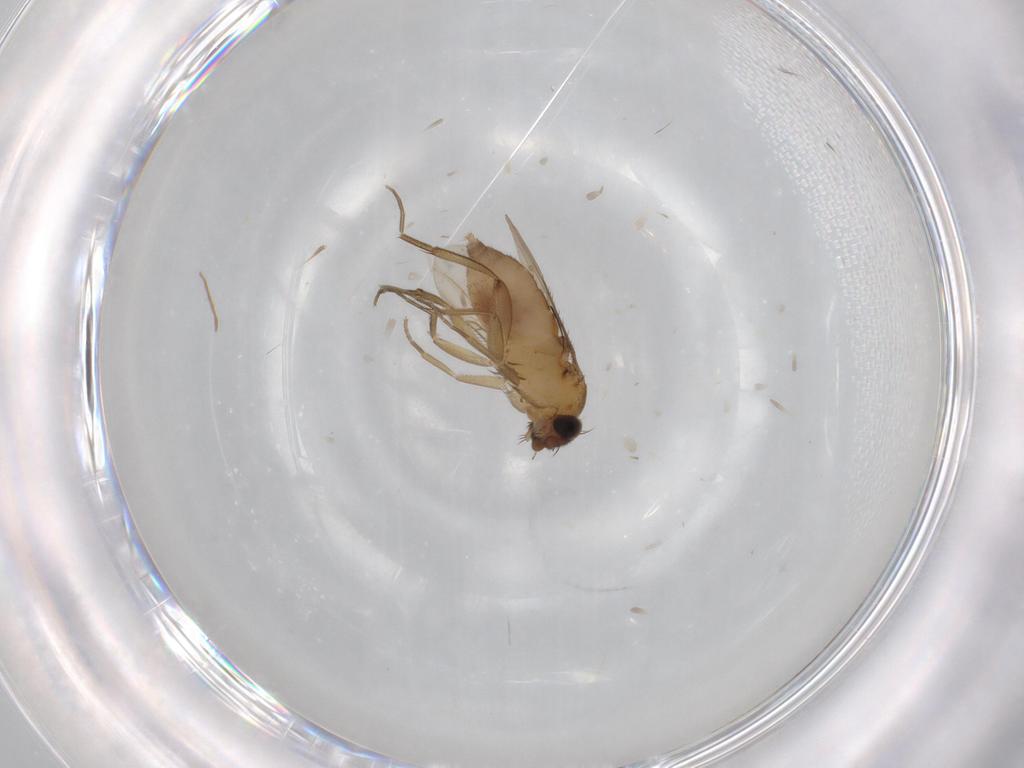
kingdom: Animalia
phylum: Arthropoda
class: Insecta
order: Diptera
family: Phoridae
